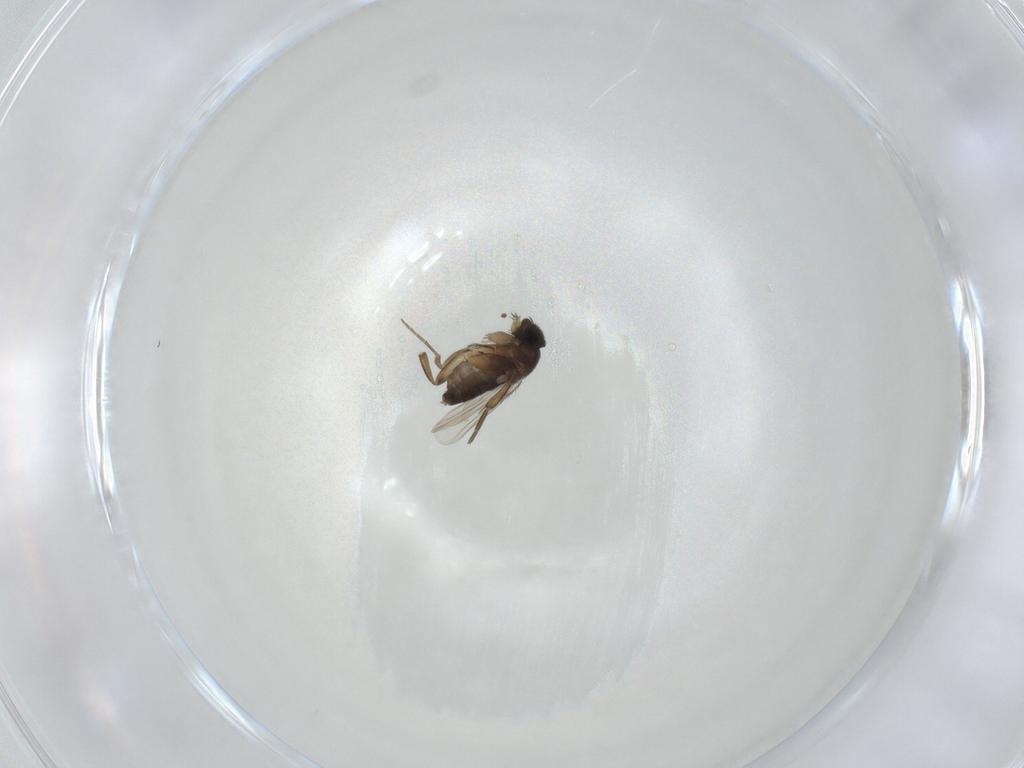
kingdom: Animalia
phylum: Arthropoda
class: Insecta
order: Diptera
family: Phoridae
